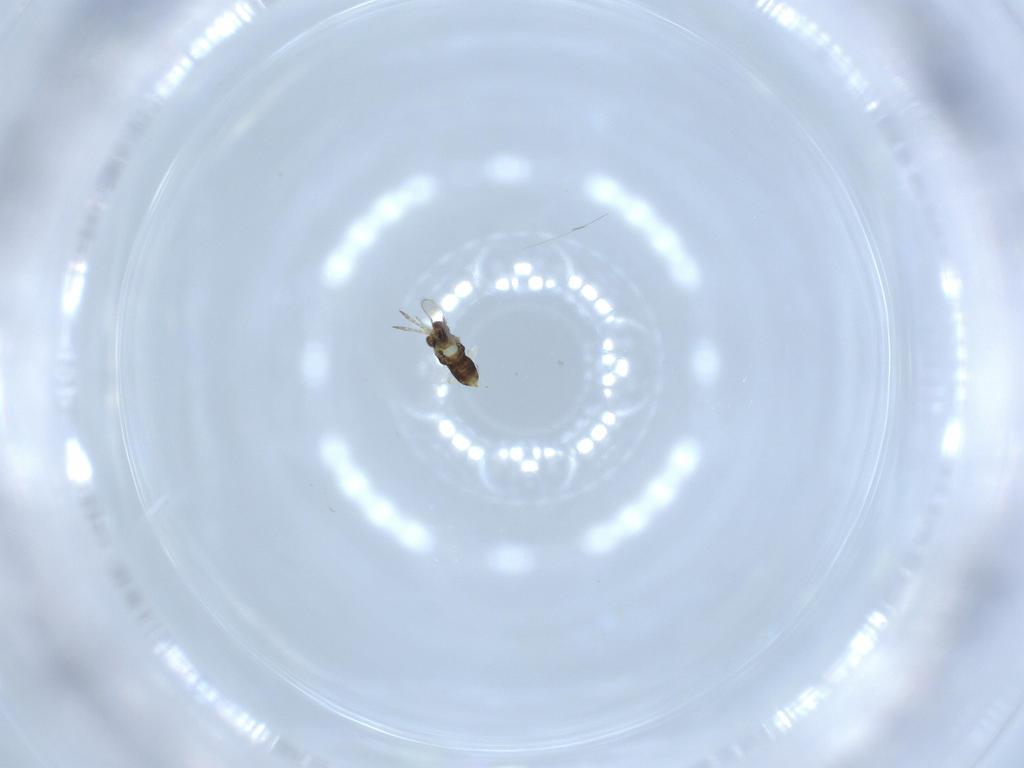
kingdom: Animalia
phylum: Arthropoda
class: Insecta
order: Hymenoptera
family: Aphelinidae
